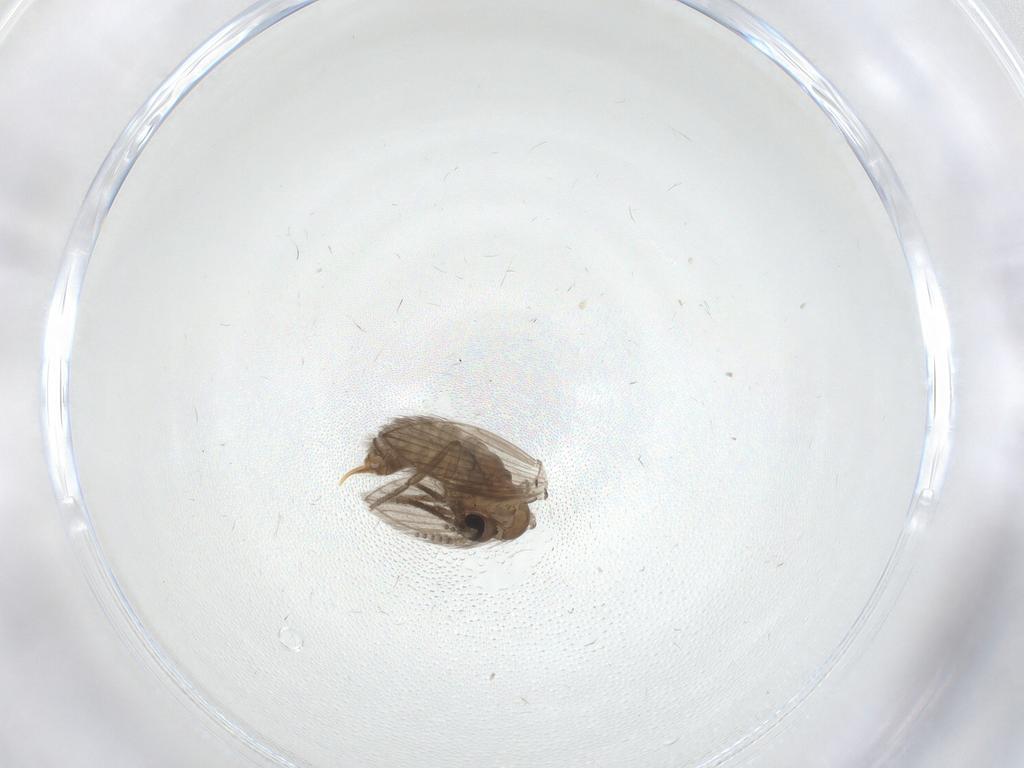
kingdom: Animalia
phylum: Arthropoda
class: Insecta
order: Diptera
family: Psychodidae
